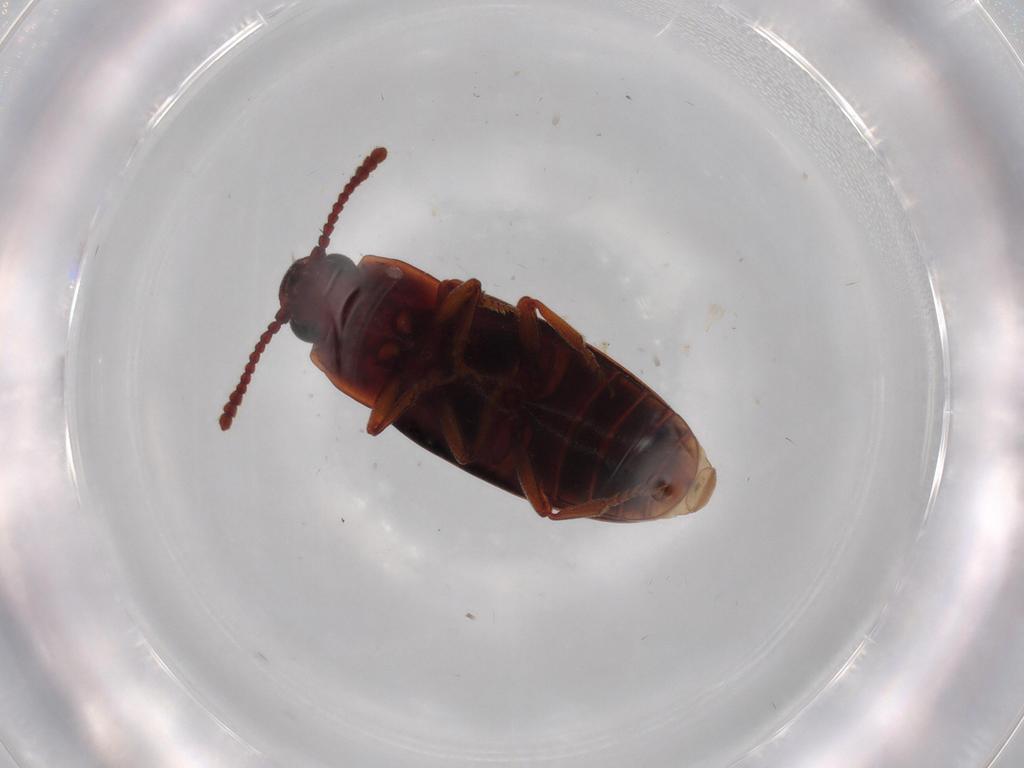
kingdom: Animalia
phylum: Arthropoda
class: Insecta
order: Coleoptera
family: Erotylidae
